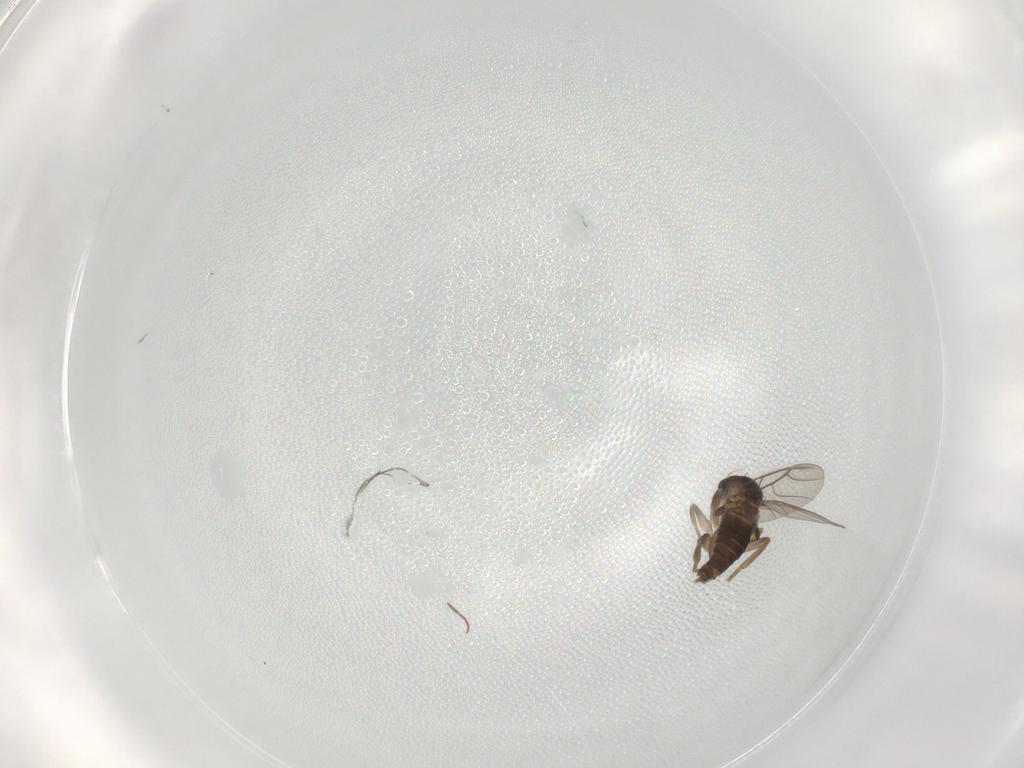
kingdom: Animalia
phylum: Arthropoda
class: Insecta
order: Diptera
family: Phoridae
